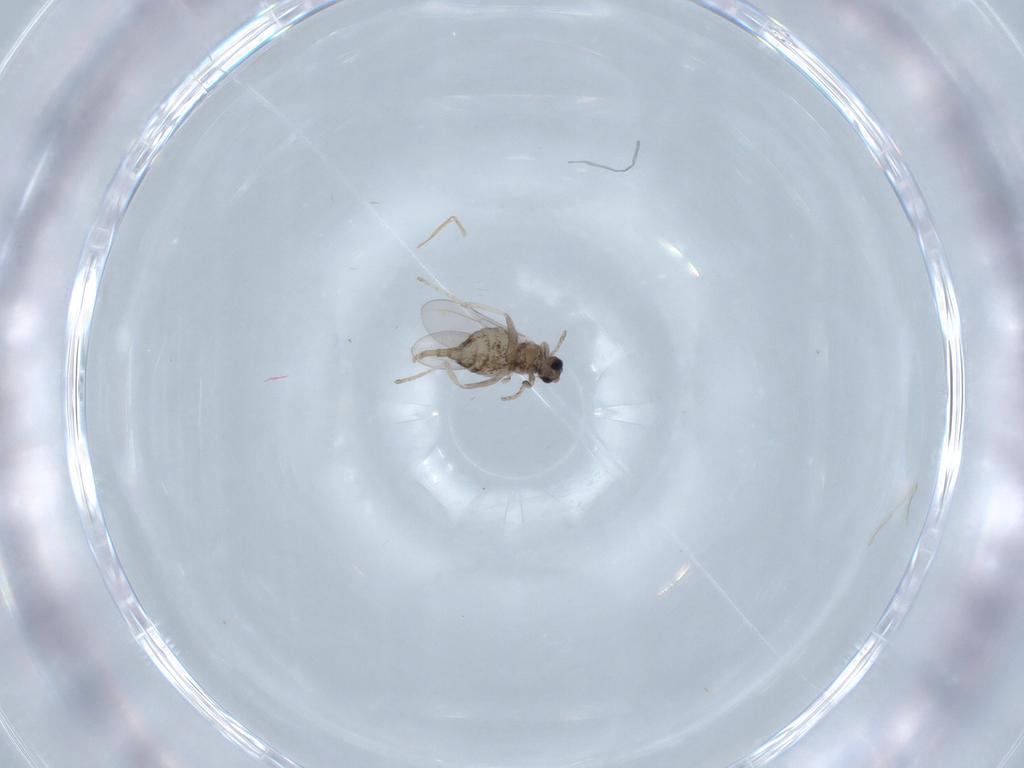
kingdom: Animalia
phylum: Arthropoda
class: Insecta
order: Diptera
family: Cecidomyiidae
